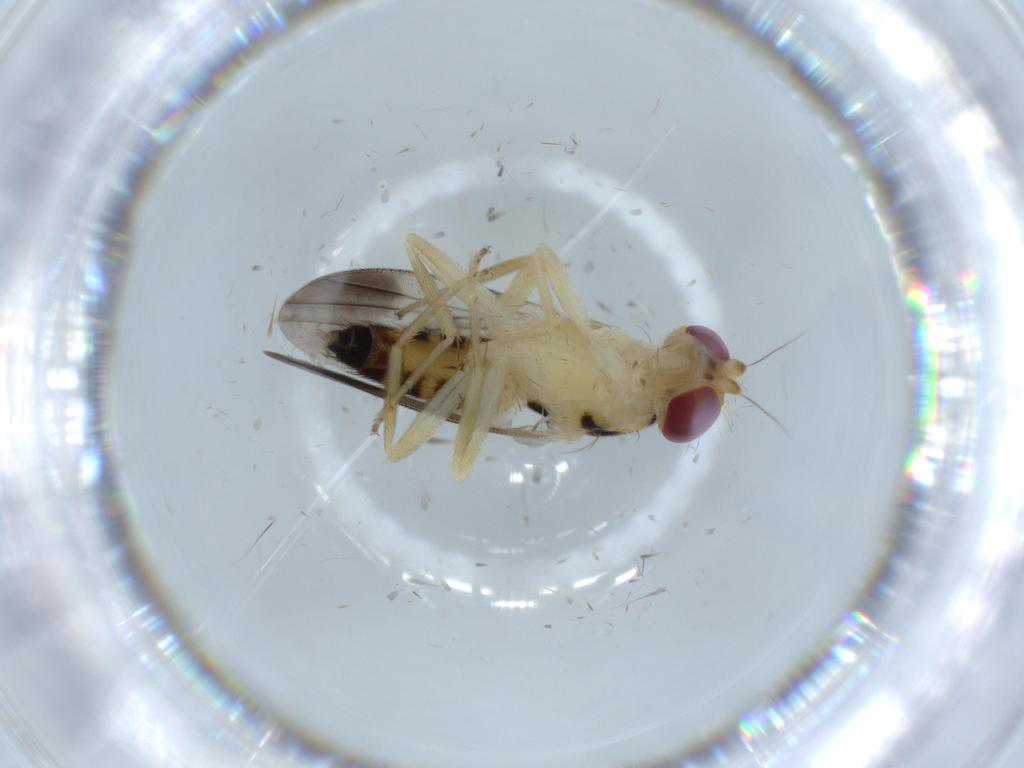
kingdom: Animalia
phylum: Arthropoda
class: Insecta
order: Diptera
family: Clusiidae
